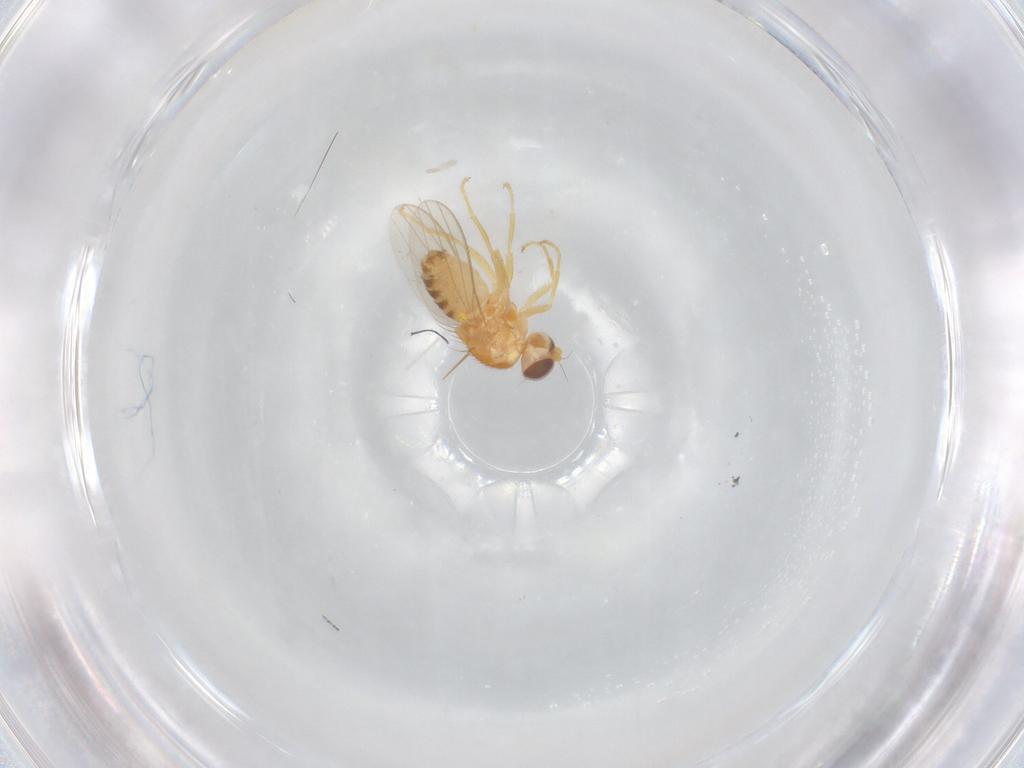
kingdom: Animalia
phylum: Arthropoda
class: Insecta
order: Diptera
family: Chyromyidae
